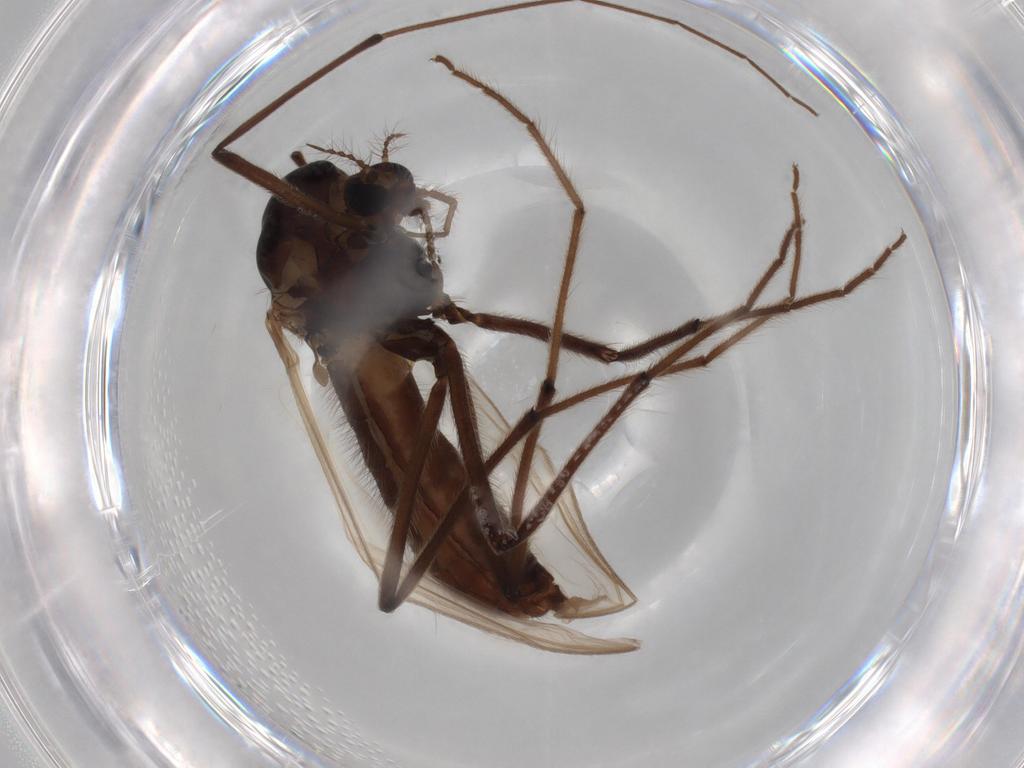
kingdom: Animalia
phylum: Arthropoda
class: Insecta
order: Diptera
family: Chironomidae
